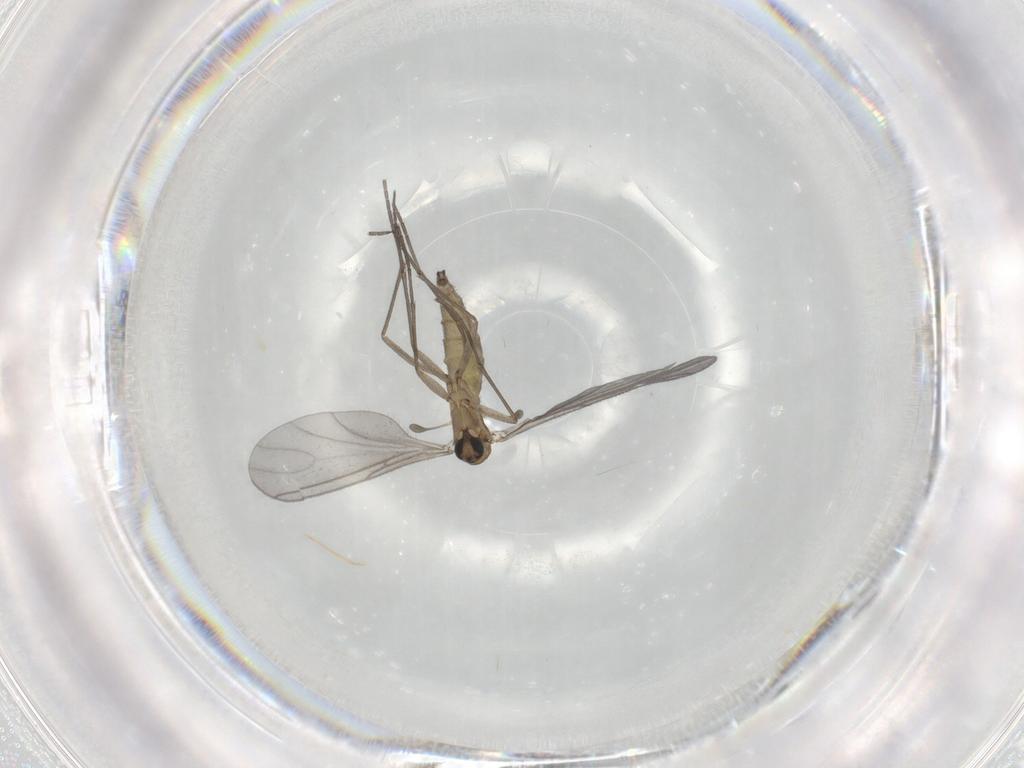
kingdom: Animalia
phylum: Arthropoda
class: Insecta
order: Diptera
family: Sciaridae
